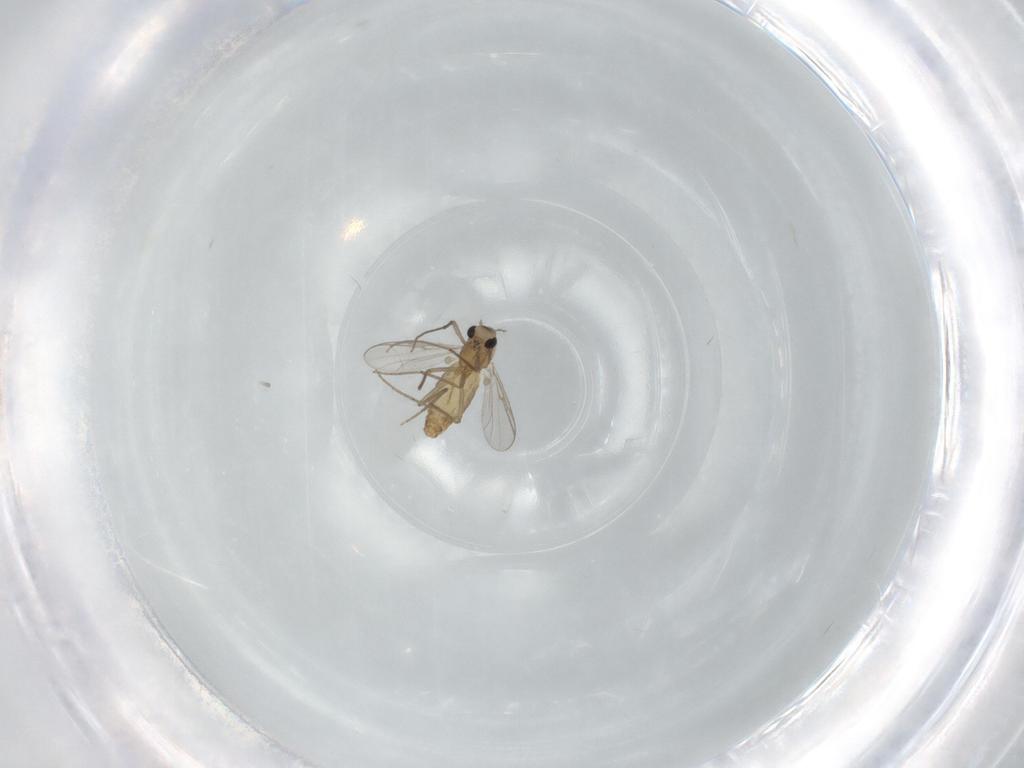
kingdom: Animalia
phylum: Arthropoda
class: Insecta
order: Diptera
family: Chironomidae
